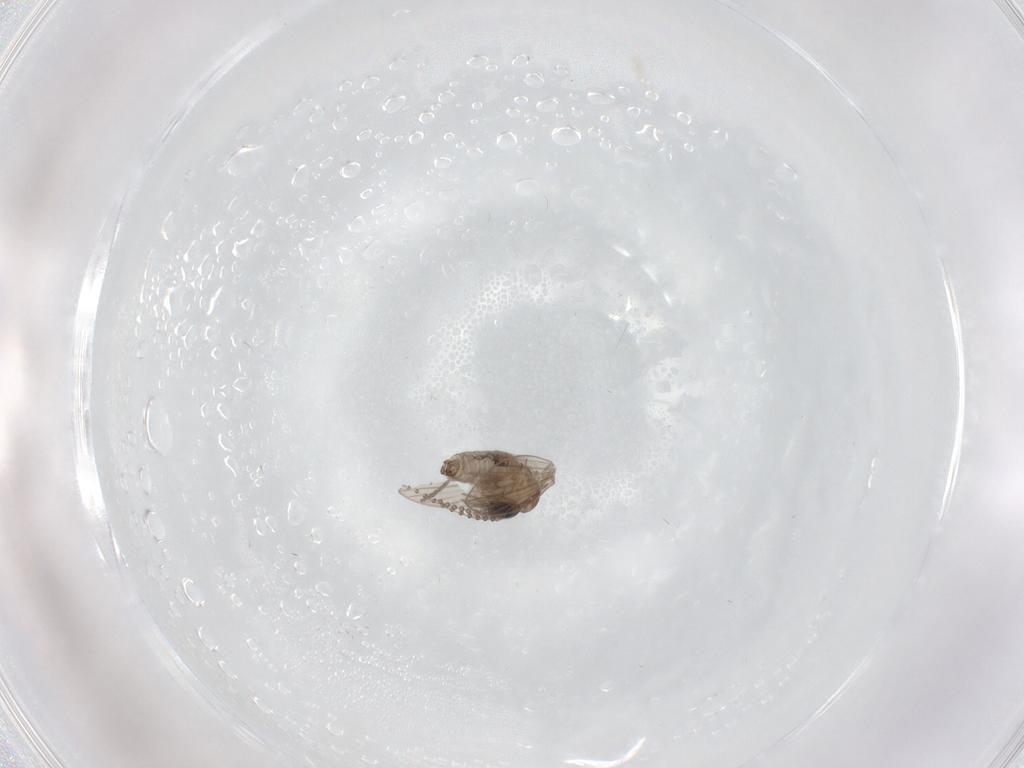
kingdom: Animalia
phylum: Arthropoda
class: Insecta
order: Diptera
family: Psychodidae
